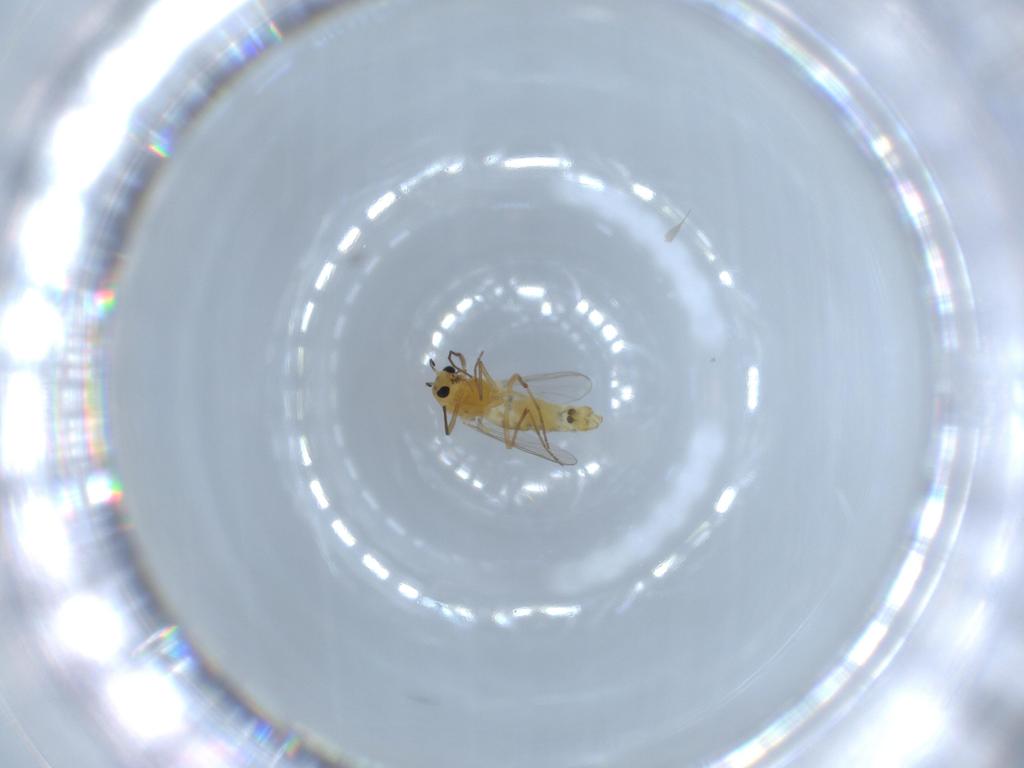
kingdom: Animalia
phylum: Arthropoda
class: Insecta
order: Diptera
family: Chironomidae
